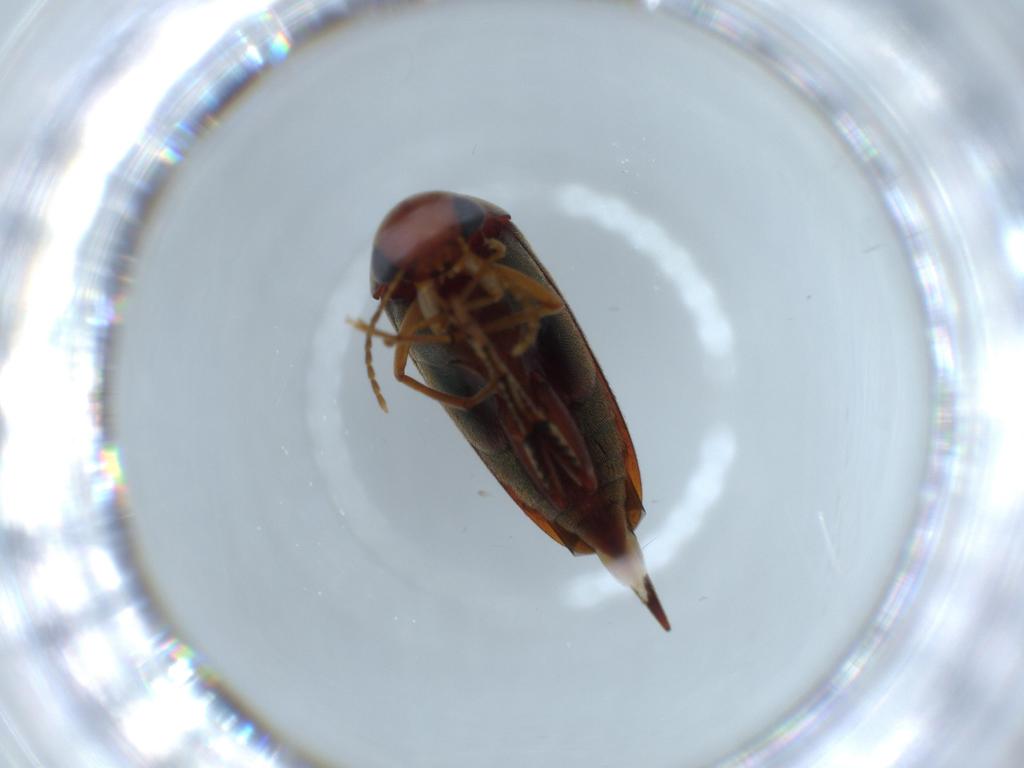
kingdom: Animalia
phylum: Arthropoda
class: Insecta
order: Coleoptera
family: Mordellidae
